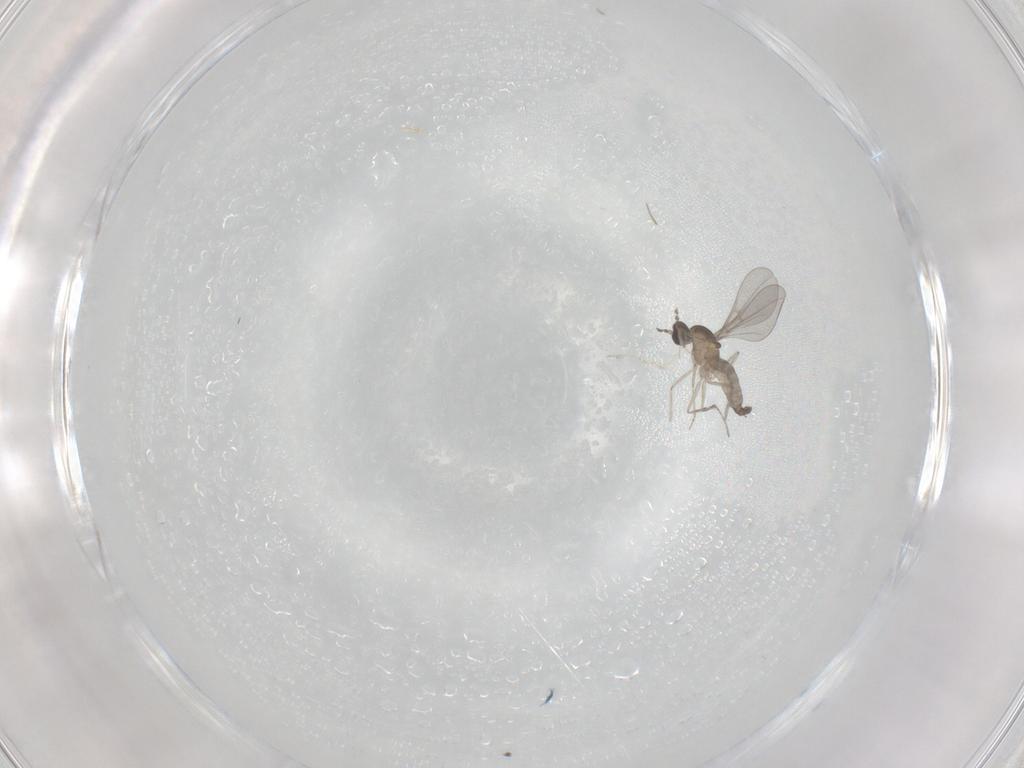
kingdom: Animalia
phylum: Arthropoda
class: Insecta
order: Diptera
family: Cecidomyiidae
